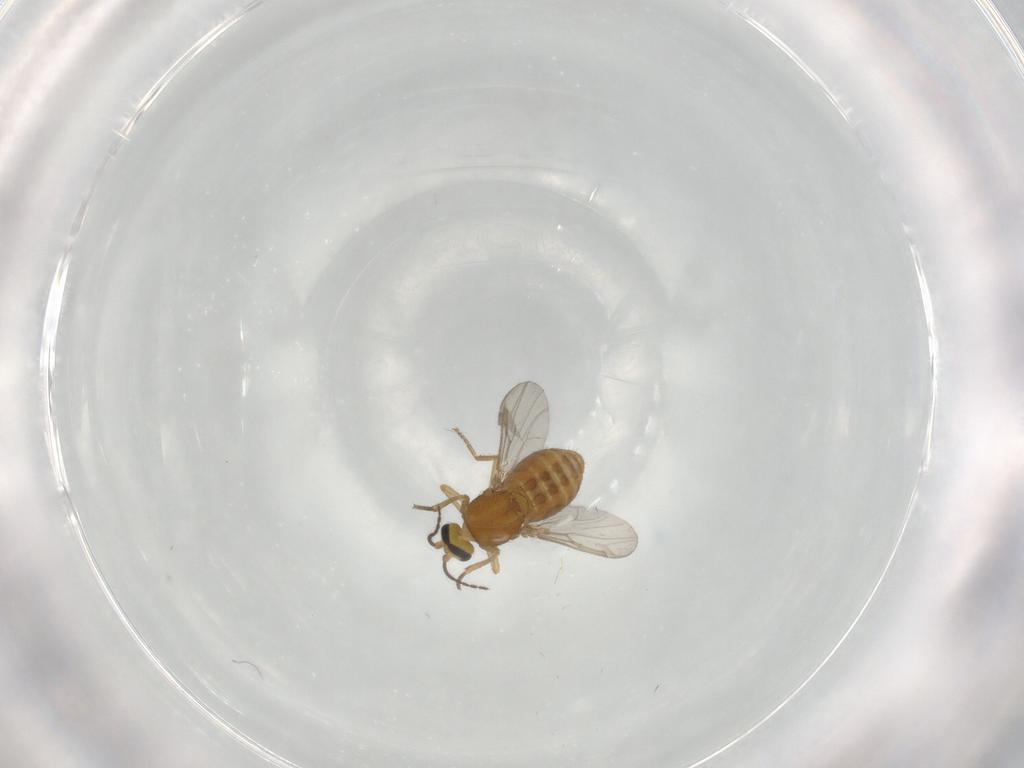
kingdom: Animalia
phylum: Arthropoda
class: Insecta
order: Diptera
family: Ceratopogonidae
